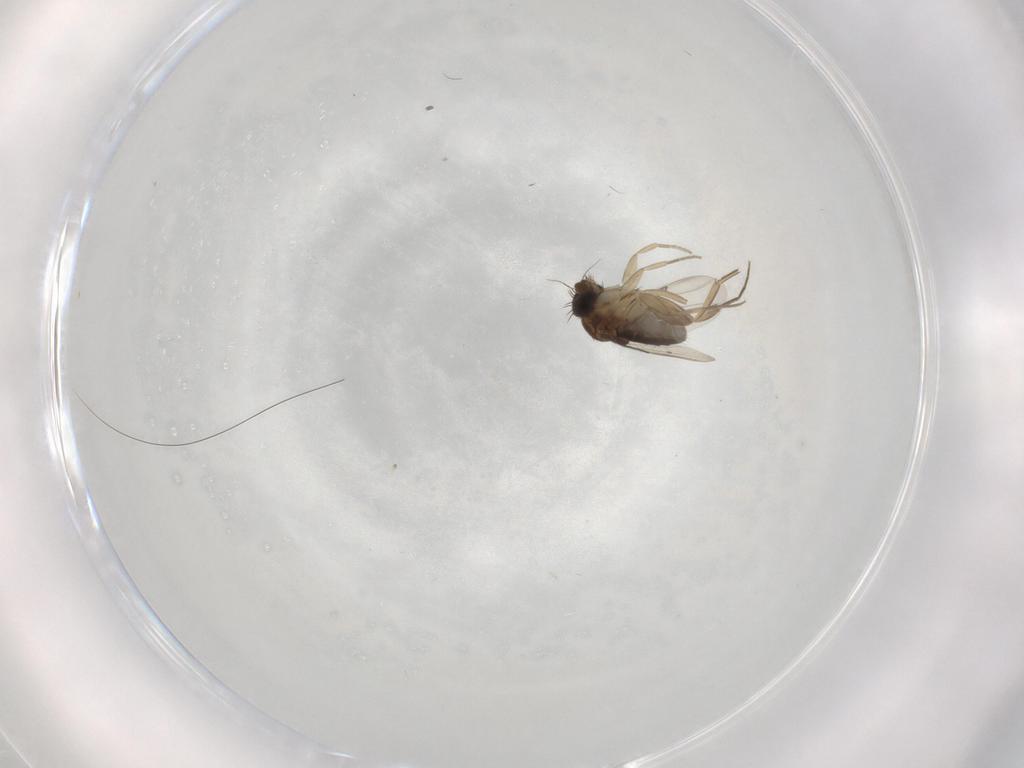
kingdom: Animalia
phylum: Arthropoda
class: Insecta
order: Diptera
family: Phoridae
